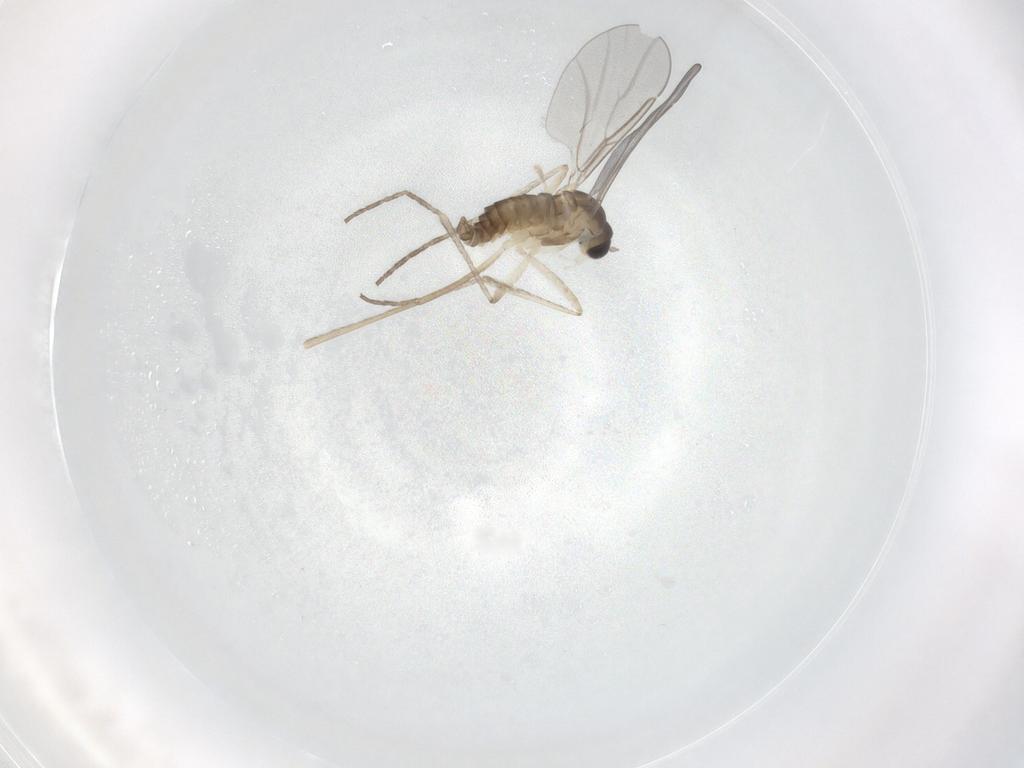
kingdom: Animalia
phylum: Arthropoda
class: Insecta
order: Diptera
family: Cecidomyiidae
